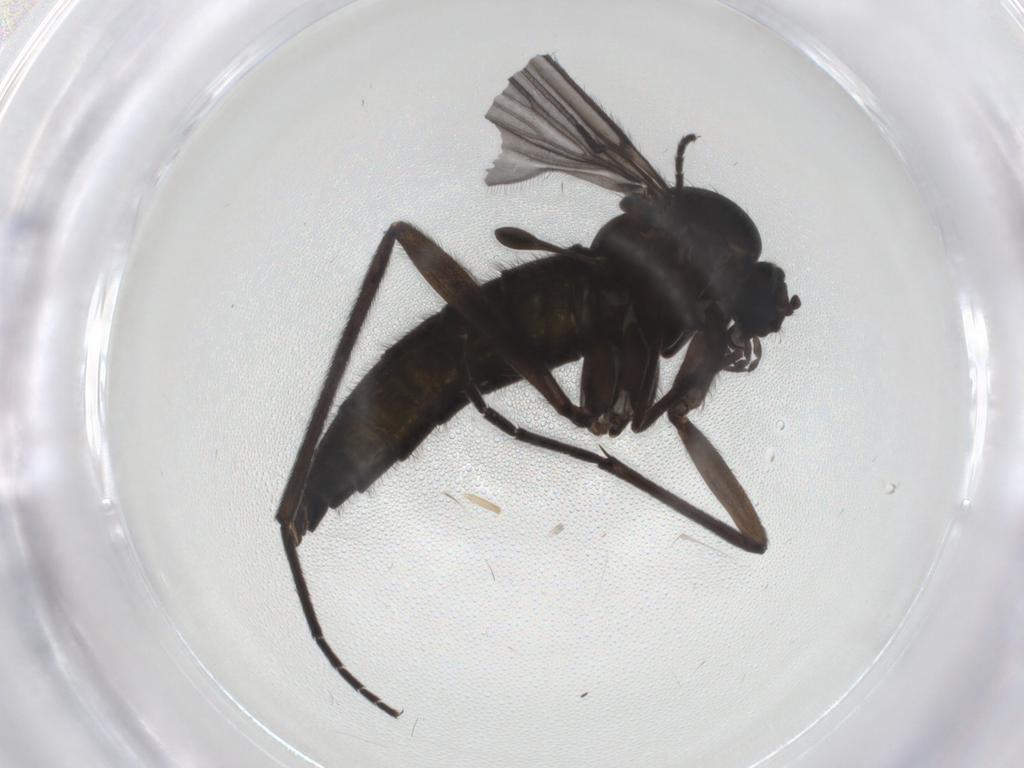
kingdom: Animalia
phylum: Arthropoda
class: Insecta
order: Diptera
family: Sciaridae
